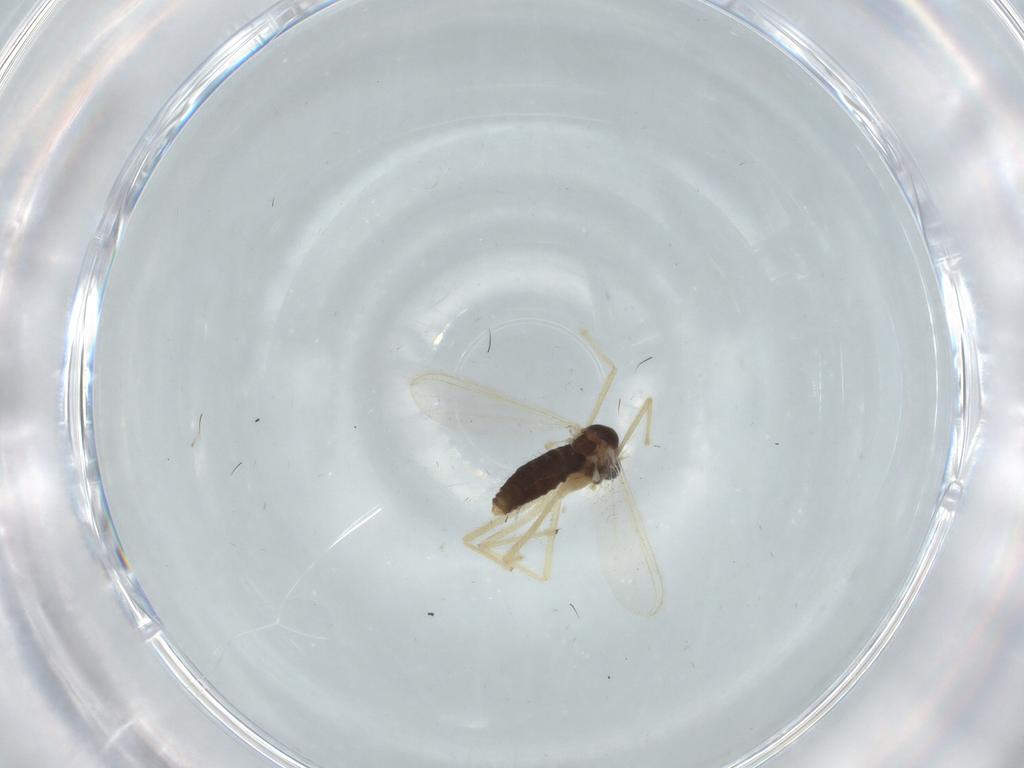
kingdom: Animalia
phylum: Arthropoda
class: Insecta
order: Diptera
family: Chironomidae
